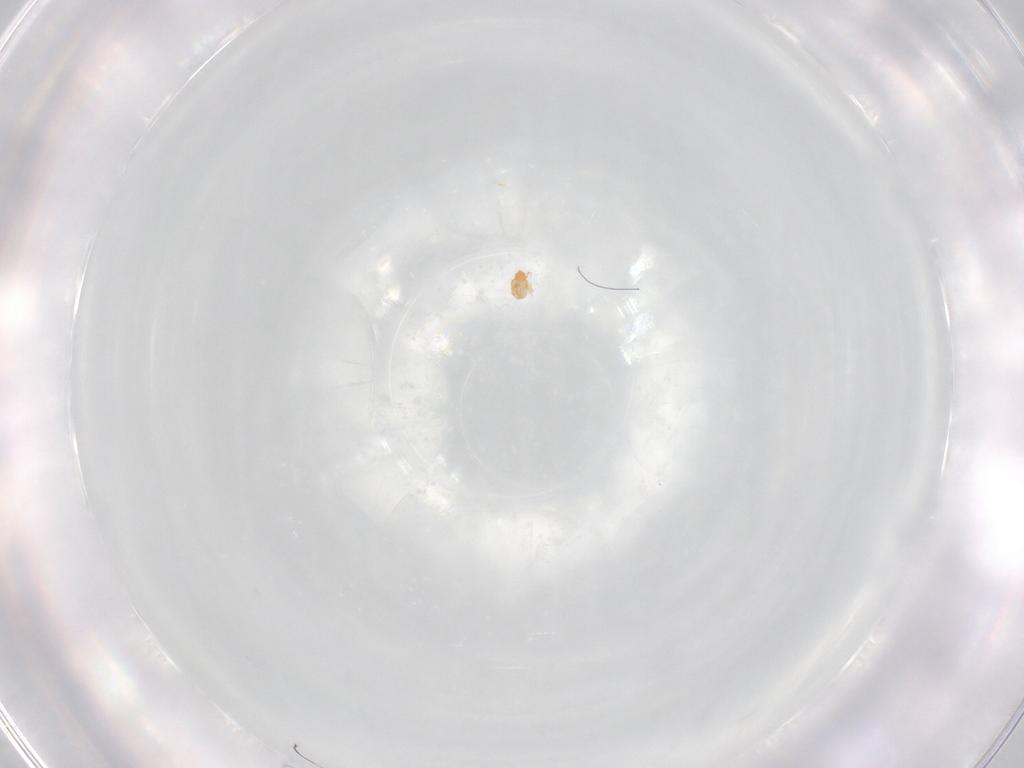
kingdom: Animalia
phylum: Arthropoda
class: Arachnida
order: Sarcoptiformes
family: Brachychthoniidae
